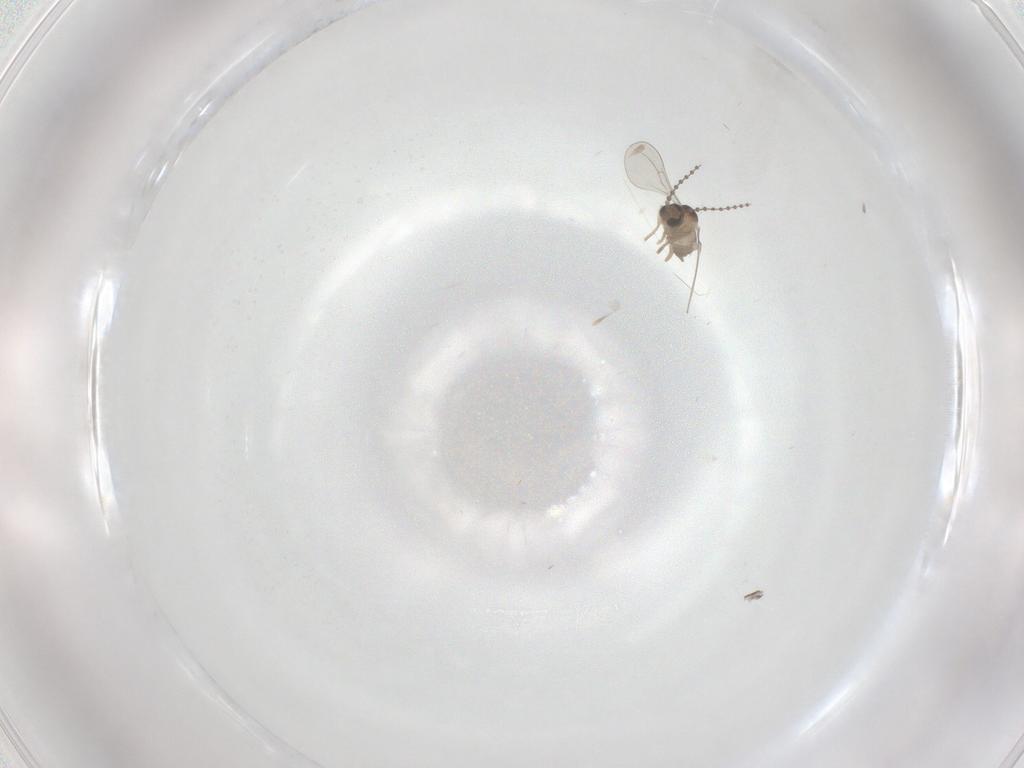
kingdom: Animalia
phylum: Arthropoda
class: Insecta
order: Diptera
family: Cecidomyiidae
